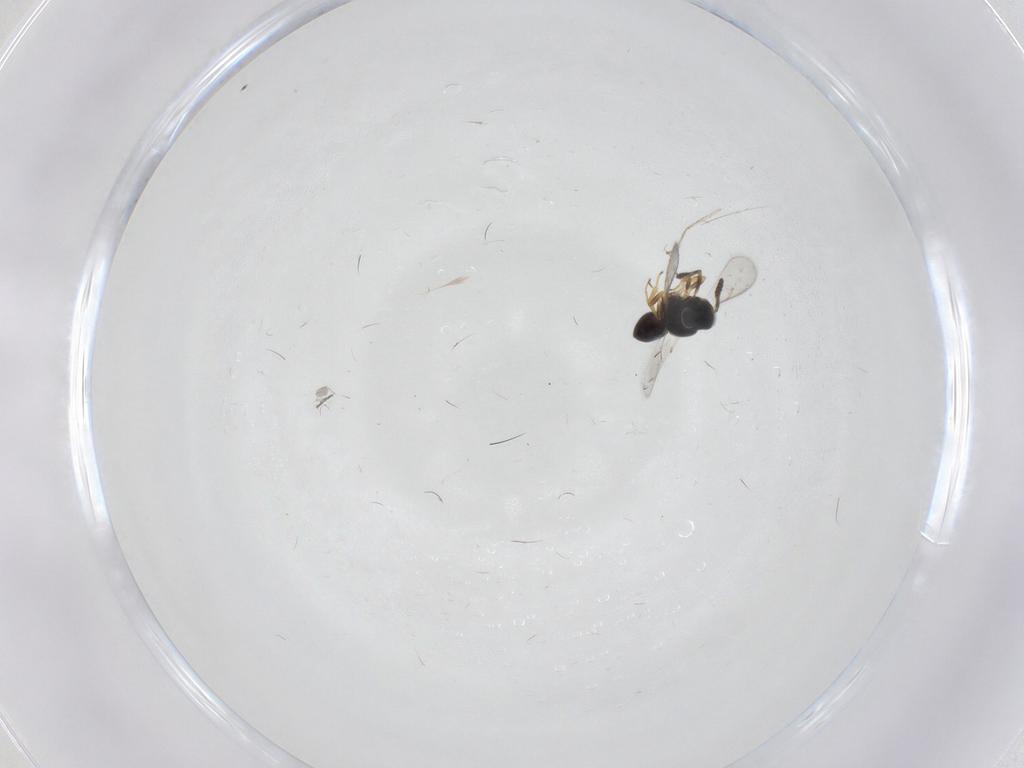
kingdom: Animalia
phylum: Arthropoda
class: Insecta
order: Hymenoptera
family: Scelionidae
